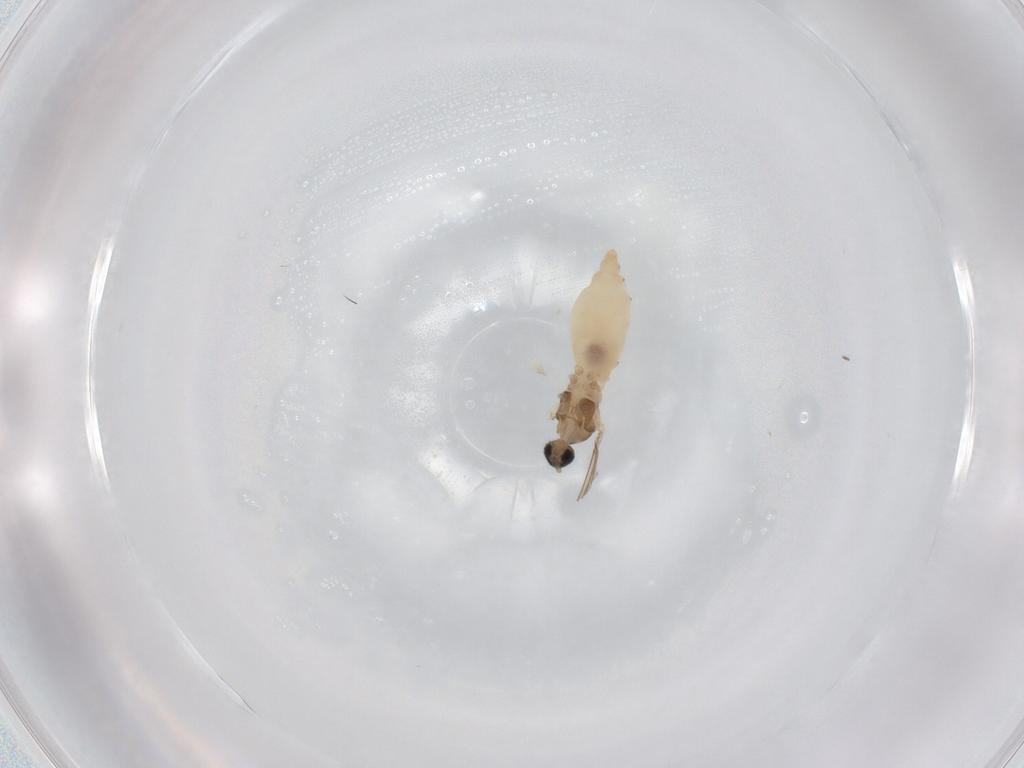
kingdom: Animalia
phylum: Arthropoda
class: Insecta
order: Diptera
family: Cecidomyiidae
